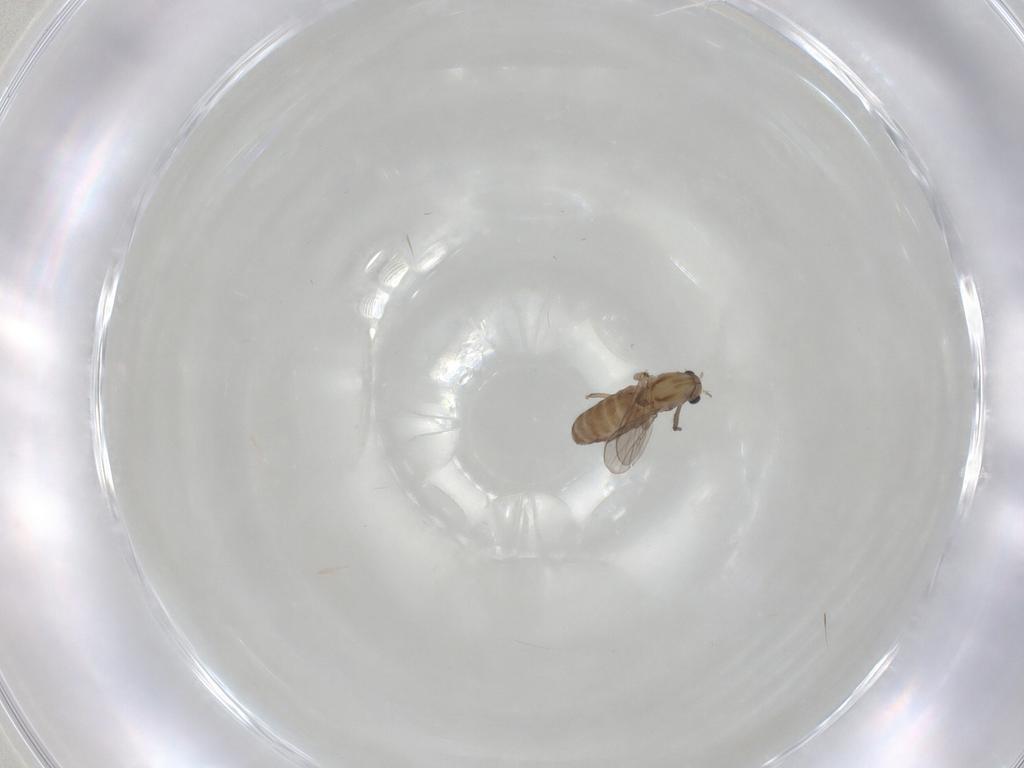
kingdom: Animalia
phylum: Arthropoda
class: Insecta
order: Diptera
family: Chironomidae
